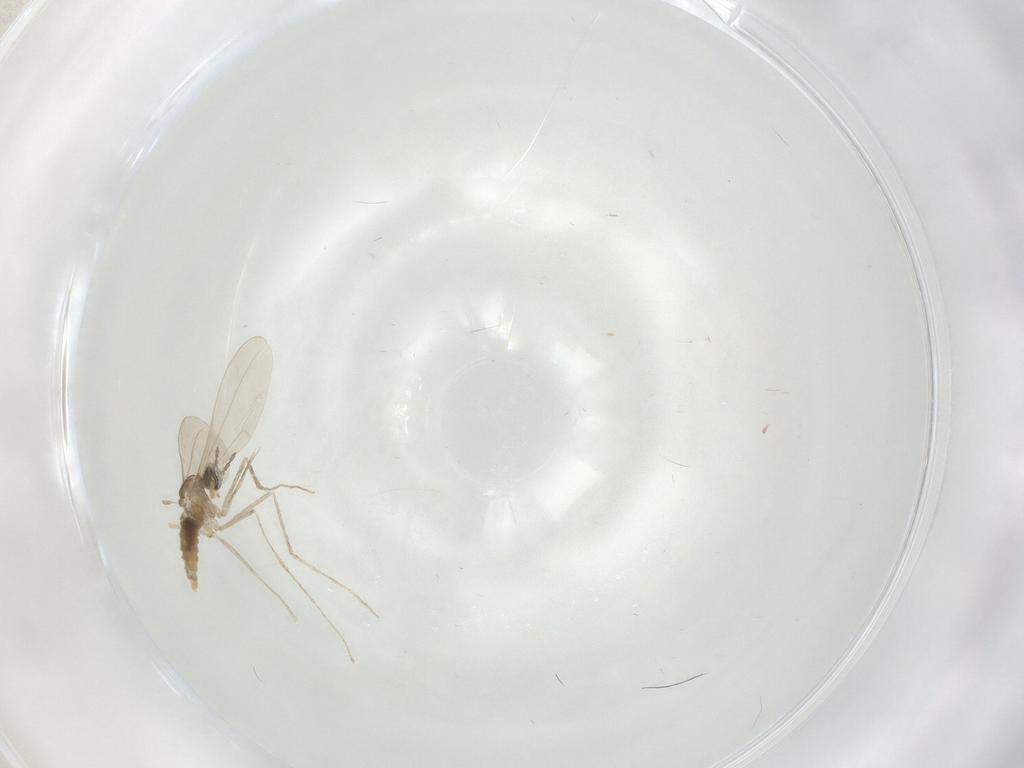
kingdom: Animalia
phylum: Arthropoda
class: Insecta
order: Diptera
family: Cecidomyiidae
